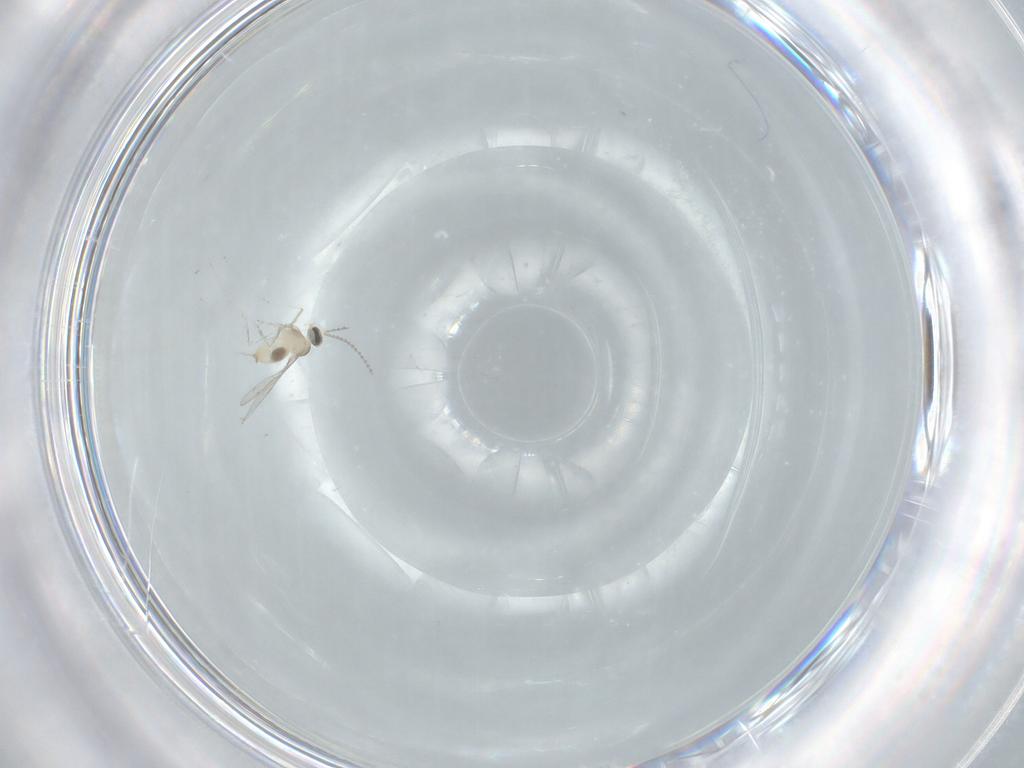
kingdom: Animalia
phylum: Arthropoda
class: Insecta
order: Diptera
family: Cecidomyiidae
